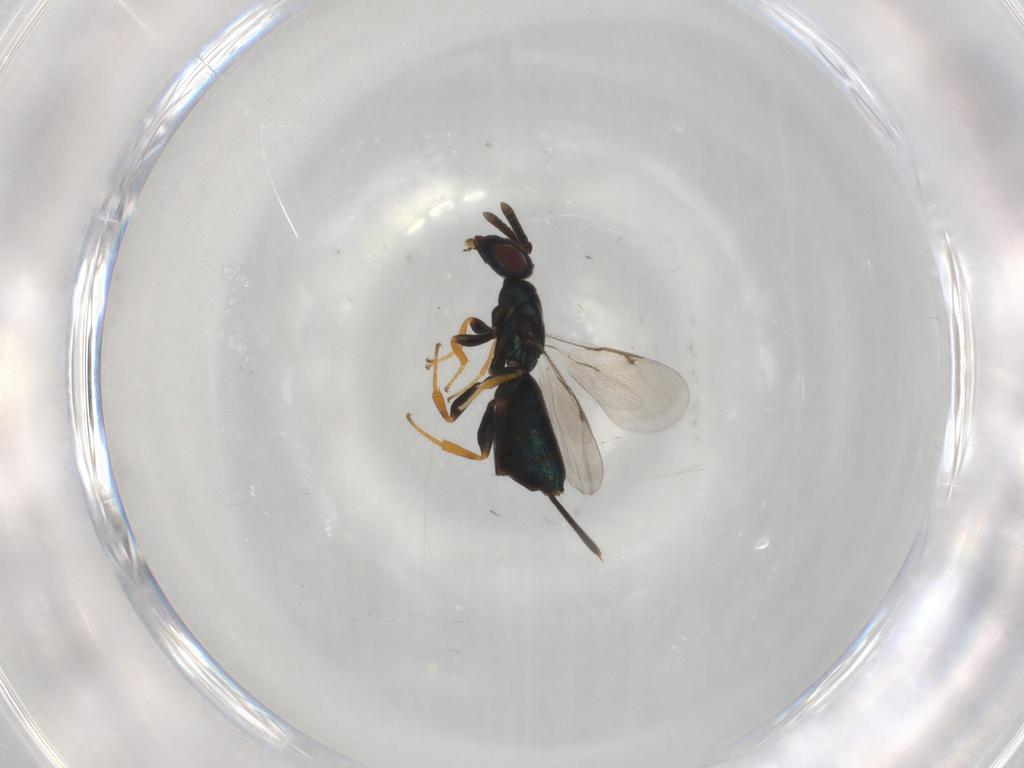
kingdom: Animalia
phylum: Arthropoda
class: Insecta
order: Hymenoptera
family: Torymidae
